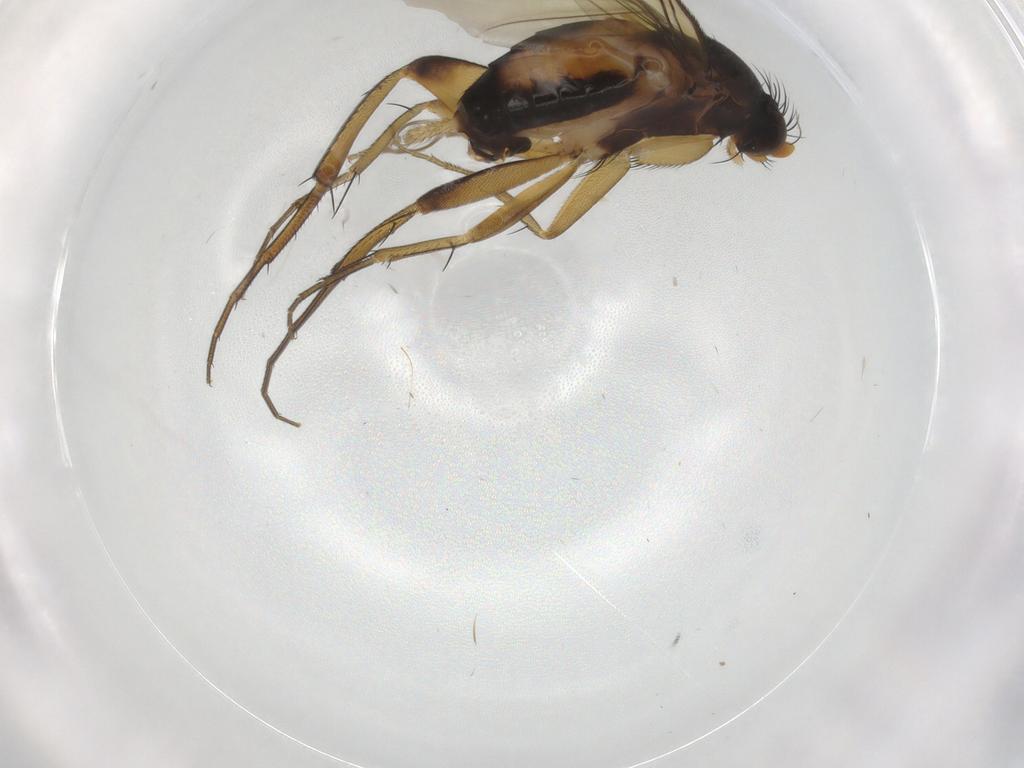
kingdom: Animalia
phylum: Arthropoda
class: Insecta
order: Diptera
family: Phoridae
